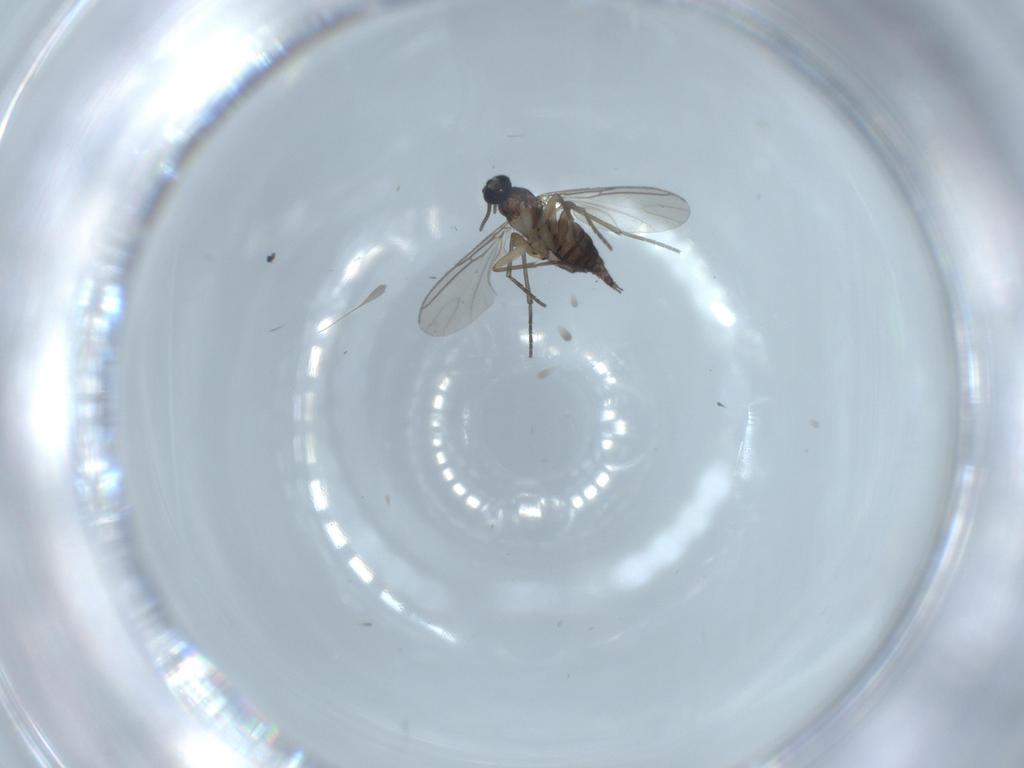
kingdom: Animalia
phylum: Arthropoda
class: Insecta
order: Diptera
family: Sciaridae
